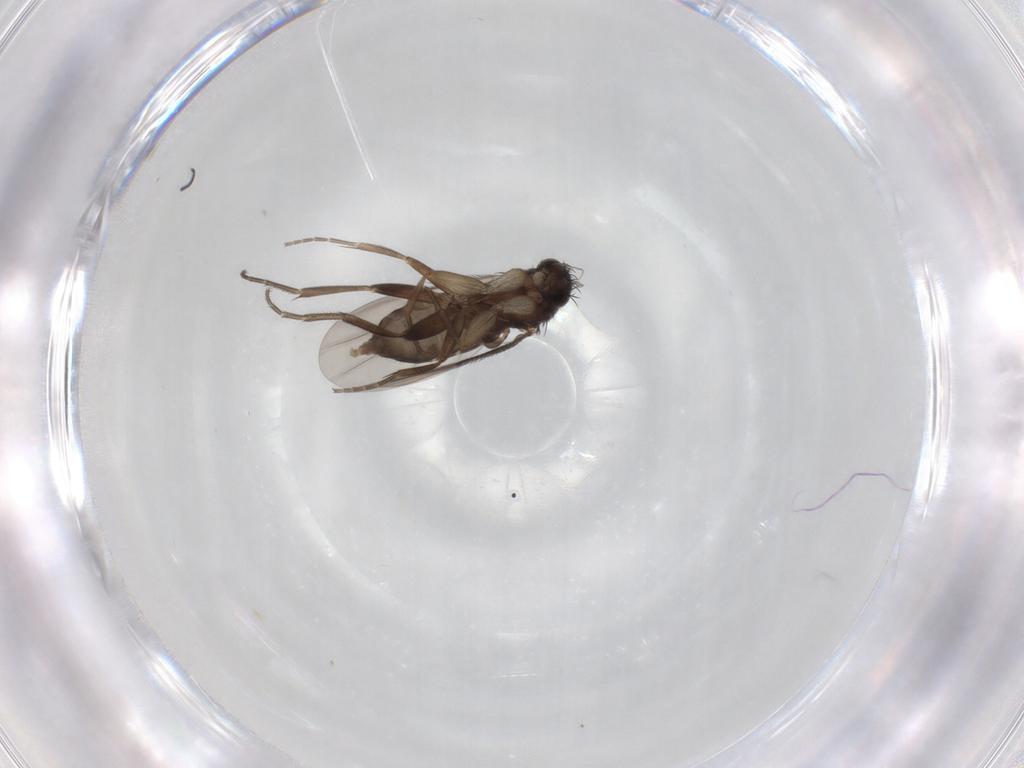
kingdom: Animalia
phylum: Arthropoda
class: Insecta
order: Diptera
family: Phoridae
